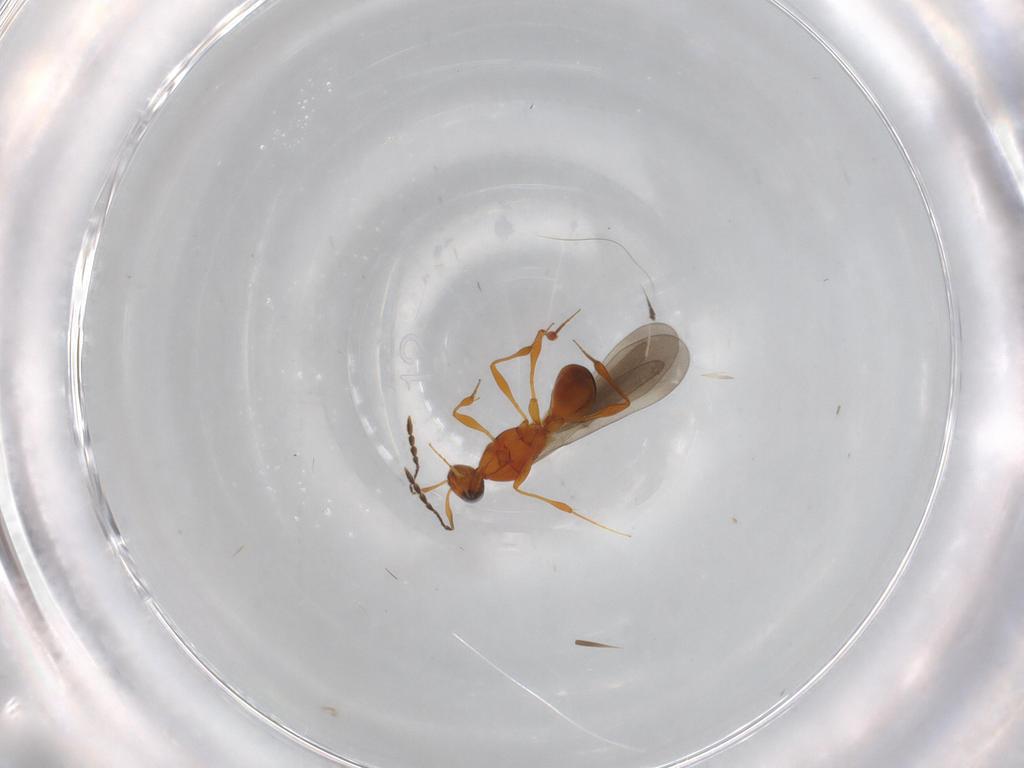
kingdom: Animalia
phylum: Arthropoda
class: Insecta
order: Hymenoptera
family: Platygastridae
